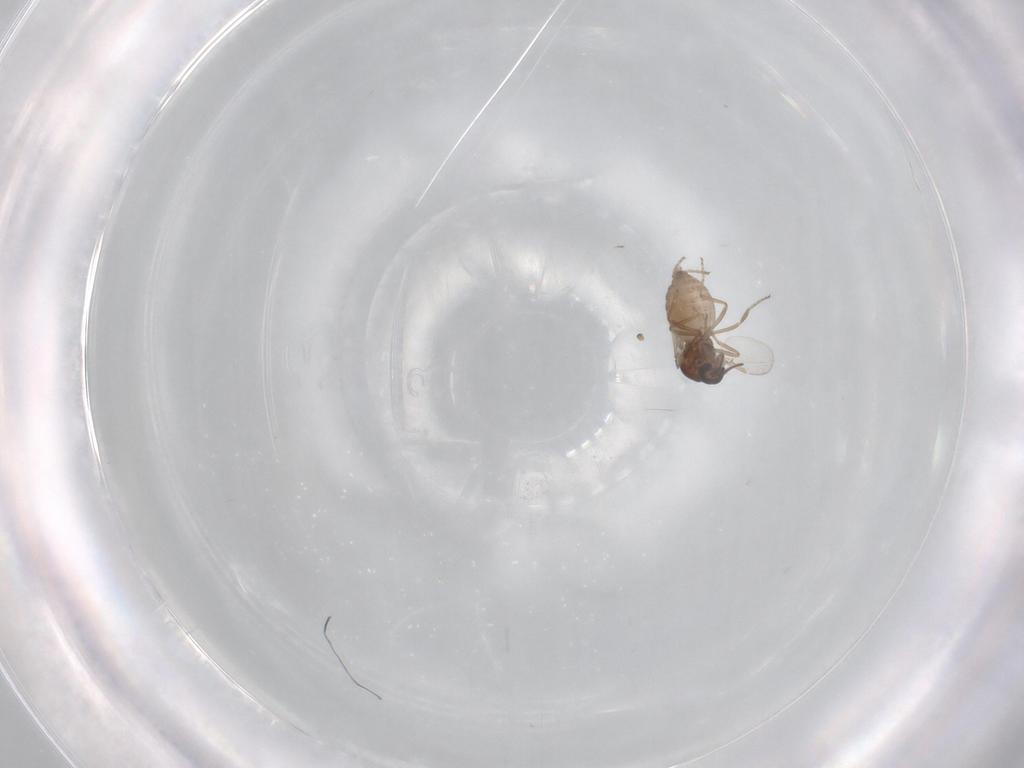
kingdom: Animalia
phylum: Arthropoda
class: Insecta
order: Diptera
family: Ceratopogonidae
